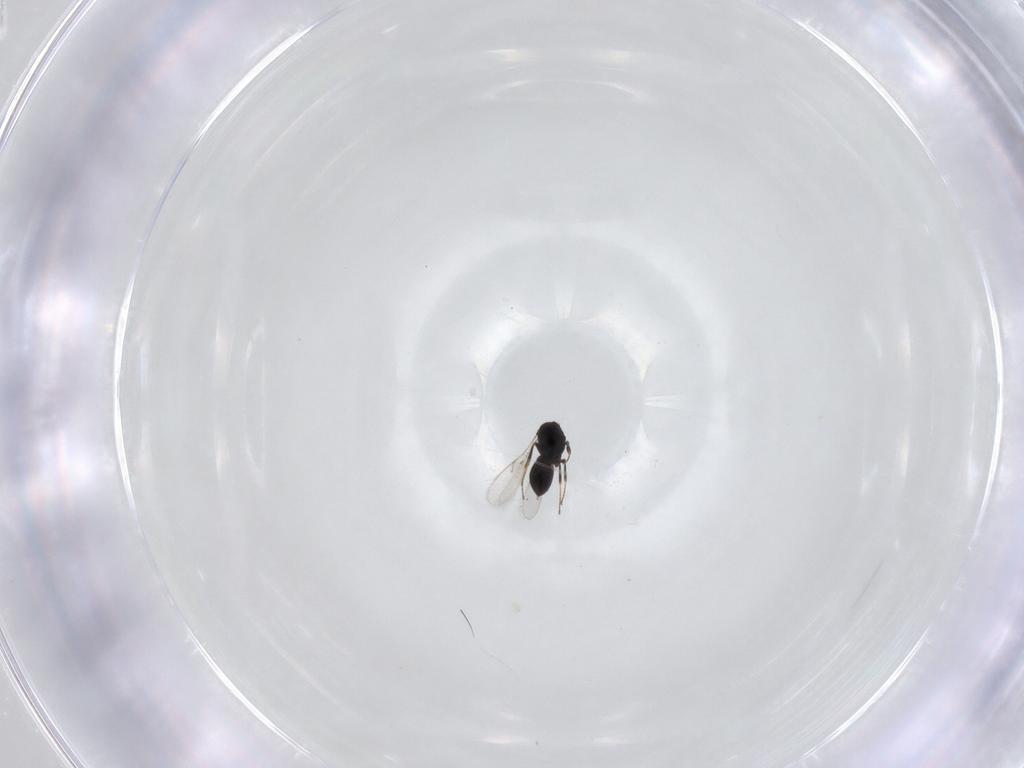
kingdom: Animalia
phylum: Arthropoda
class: Insecta
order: Hymenoptera
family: Scelionidae
